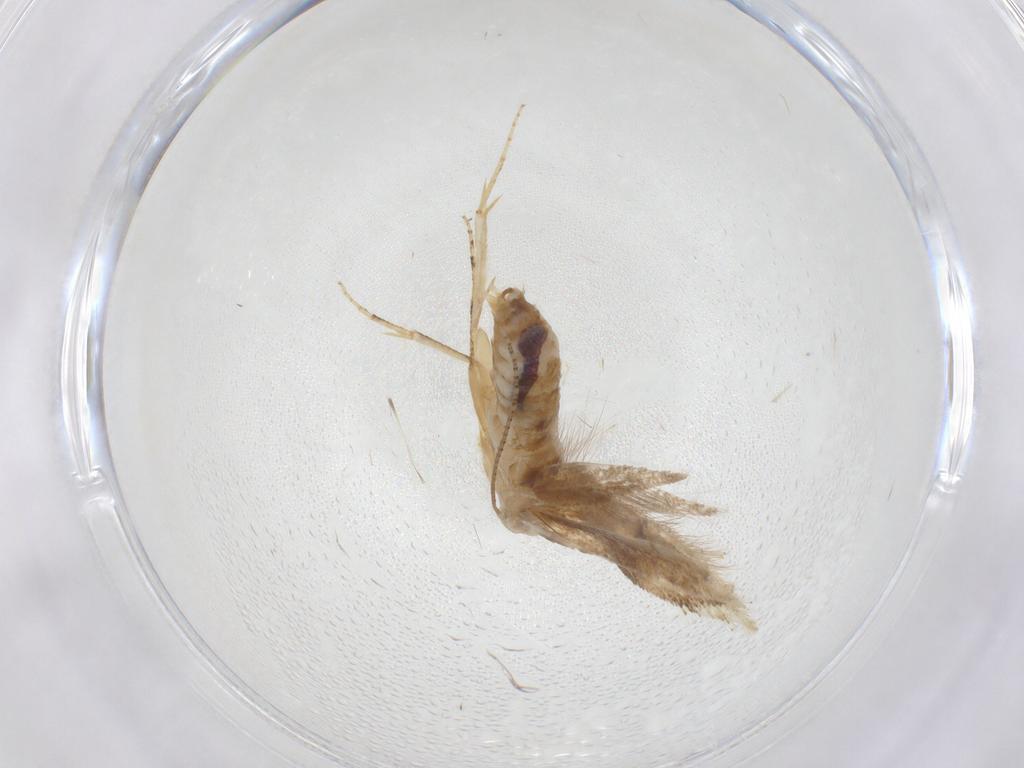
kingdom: Animalia
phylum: Arthropoda
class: Insecta
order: Lepidoptera
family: Bucculatricidae
